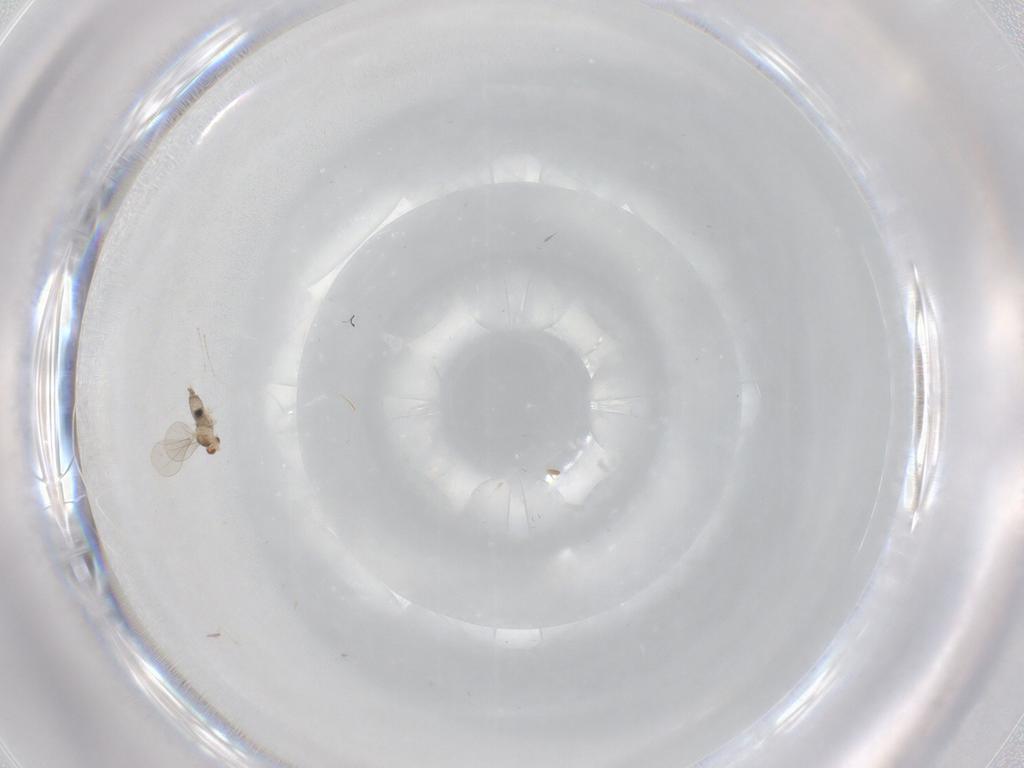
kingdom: Animalia
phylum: Arthropoda
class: Insecta
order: Diptera
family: Cecidomyiidae
